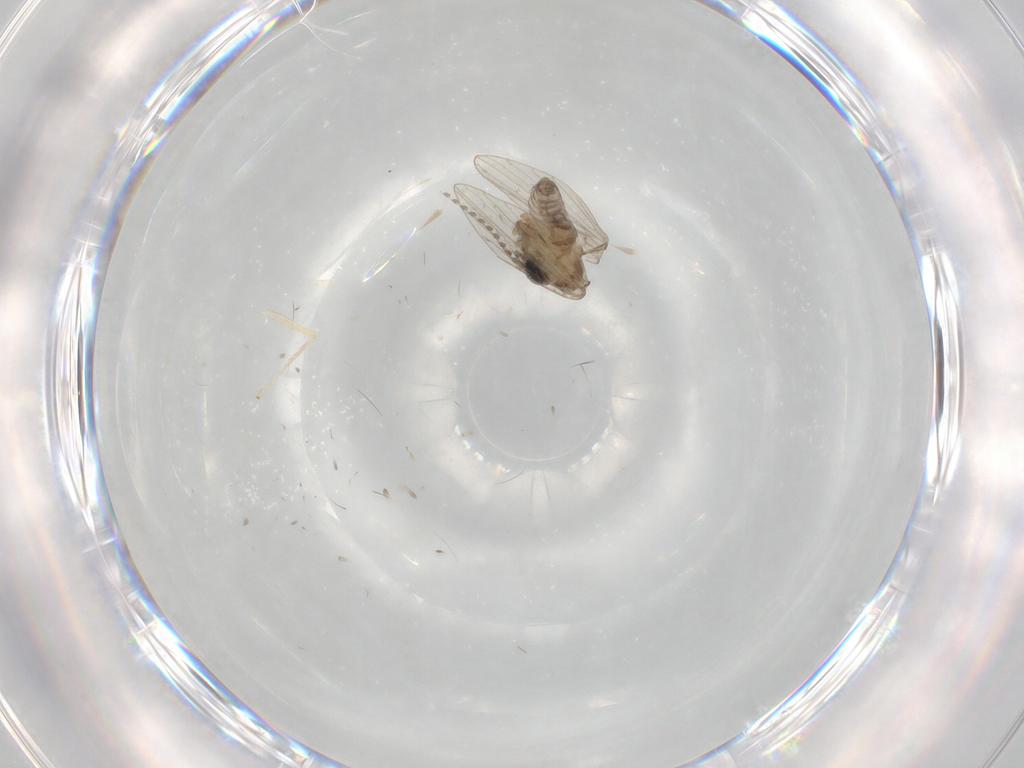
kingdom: Animalia
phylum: Arthropoda
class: Insecta
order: Diptera
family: Chironomidae
